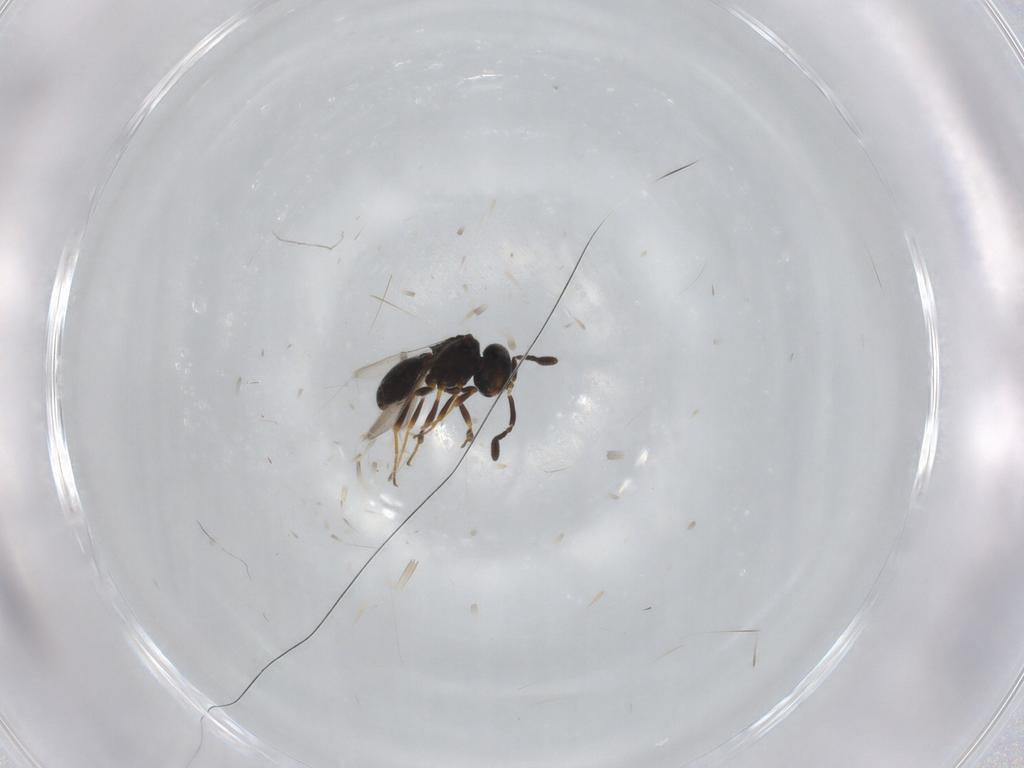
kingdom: Animalia
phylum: Arthropoda
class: Insecta
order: Hymenoptera
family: Scelionidae
